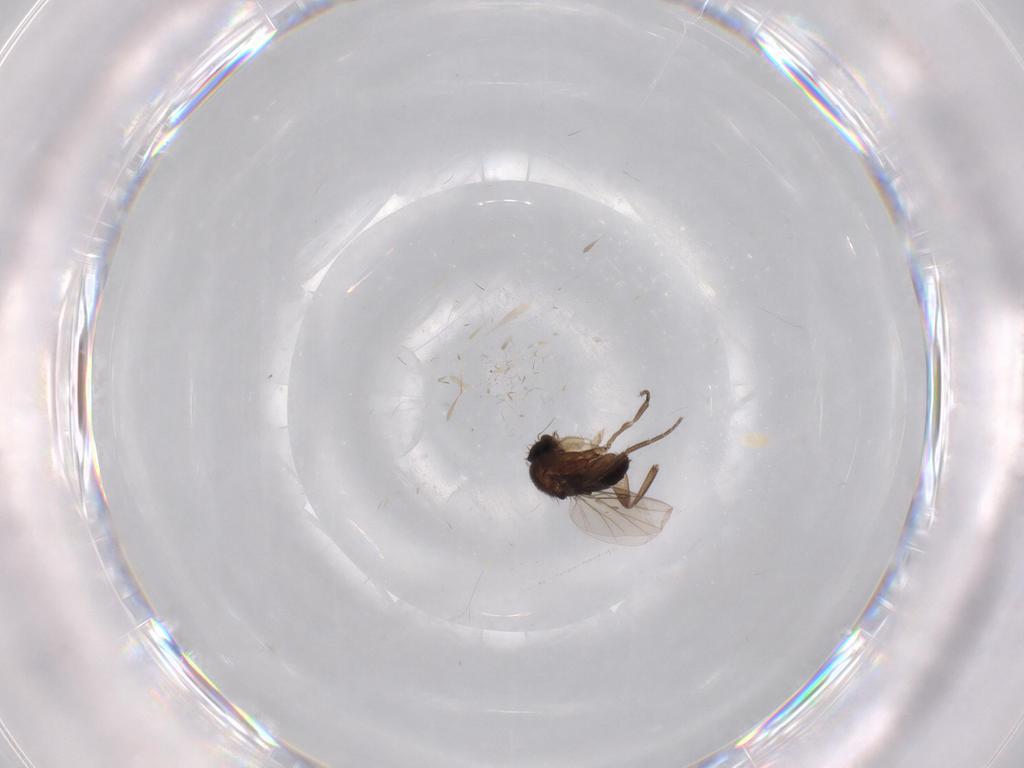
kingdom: Animalia
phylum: Arthropoda
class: Insecta
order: Diptera
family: Phoridae
